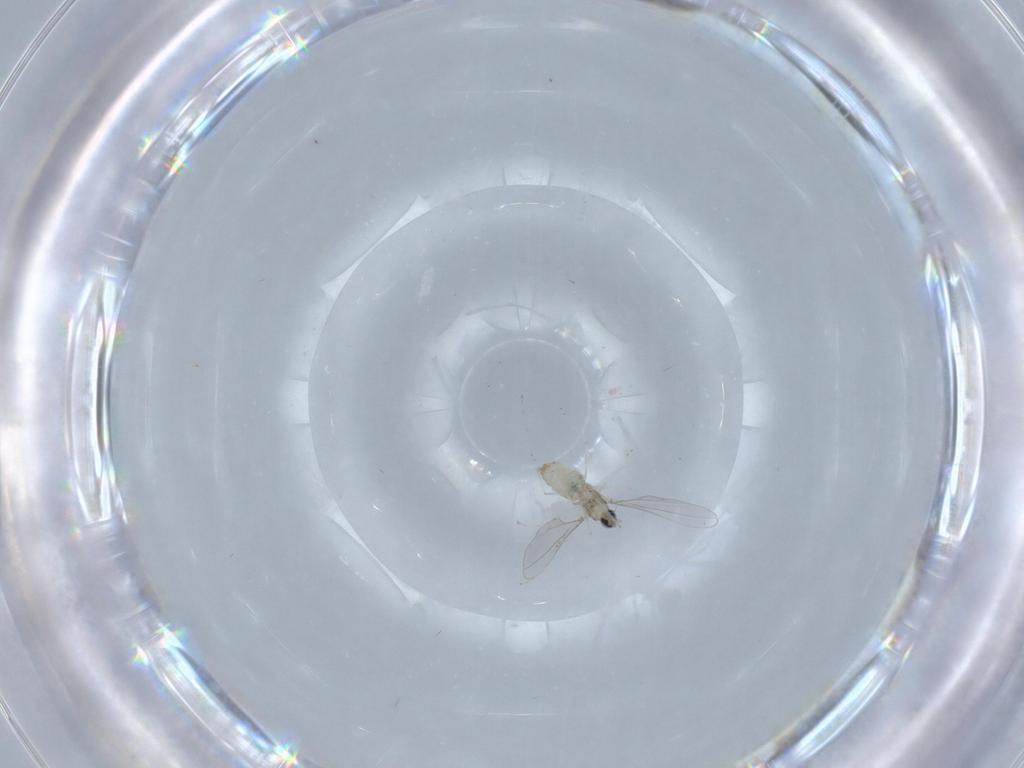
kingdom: Animalia
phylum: Arthropoda
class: Insecta
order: Diptera
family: Cecidomyiidae
